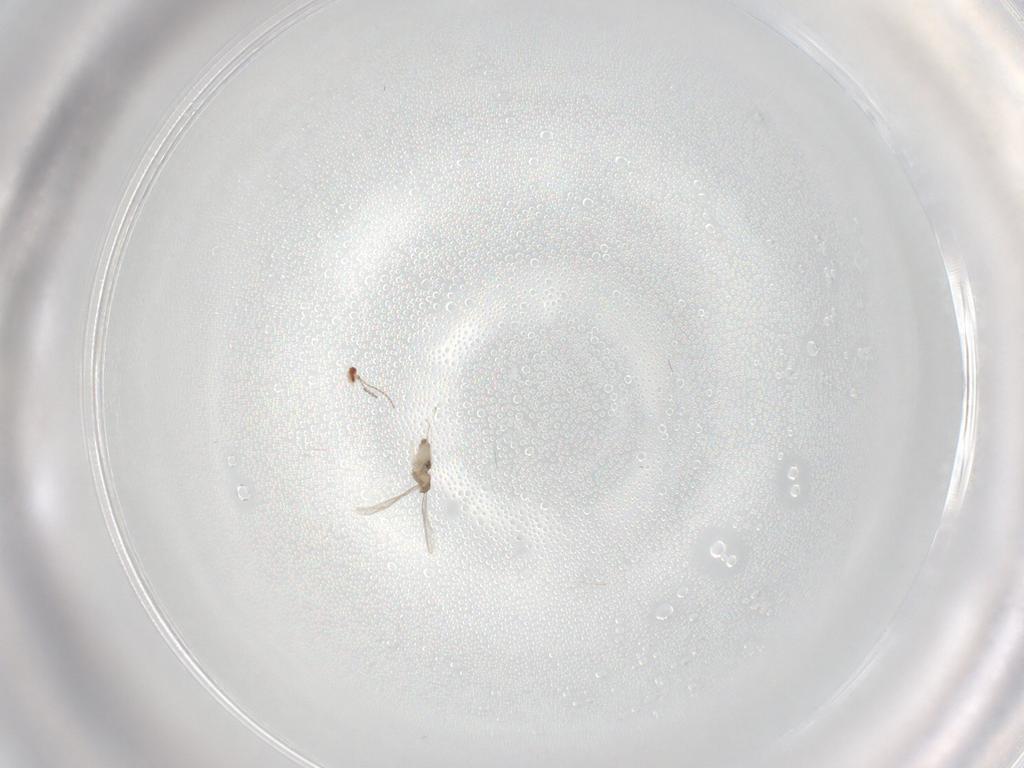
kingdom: Animalia
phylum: Arthropoda
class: Insecta
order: Diptera
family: Cecidomyiidae
